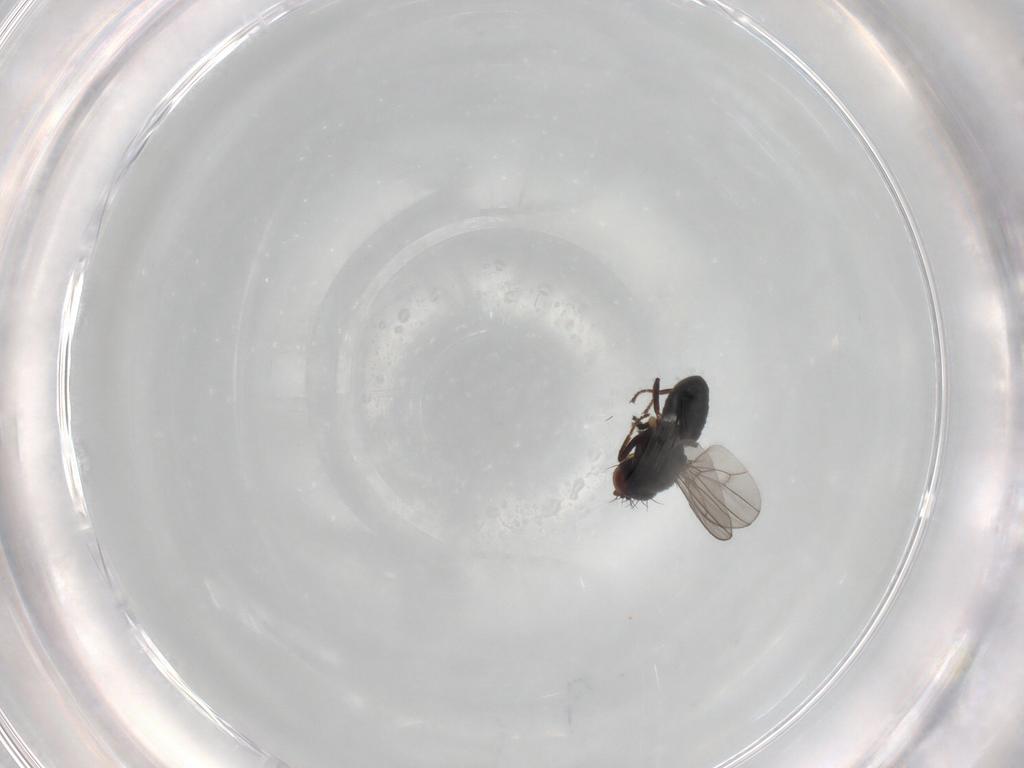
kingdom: Animalia
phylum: Arthropoda
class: Insecta
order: Diptera
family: Ephydridae
